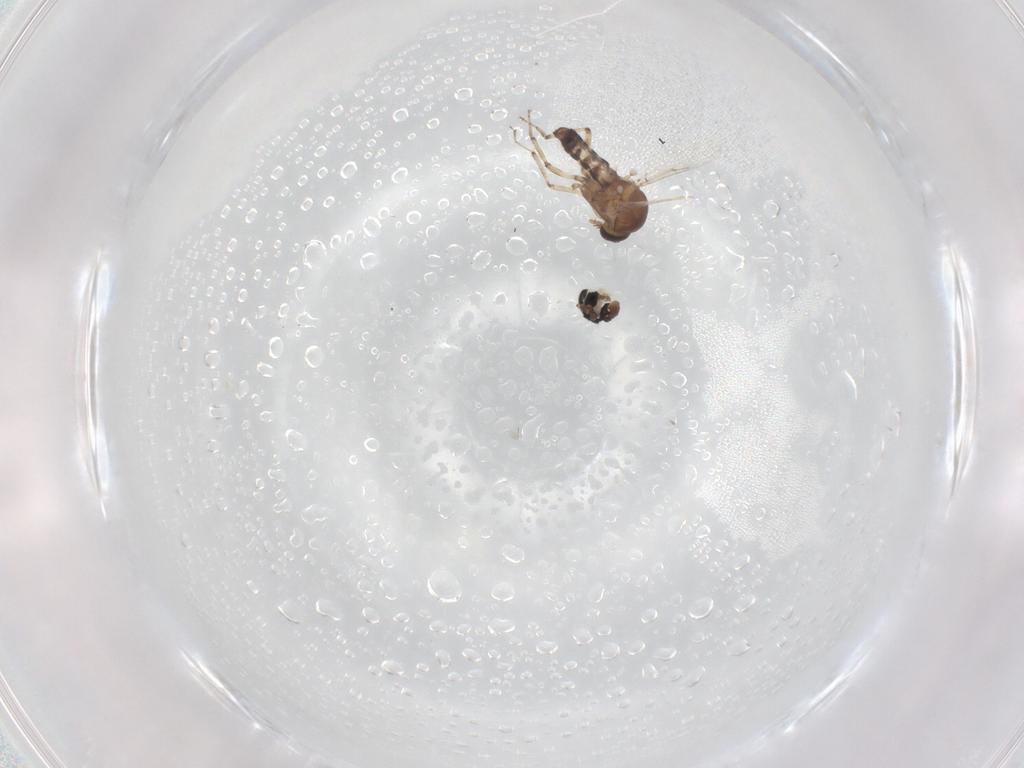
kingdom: Animalia
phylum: Arthropoda
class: Insecta
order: Diptera
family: Ceratopogonidae
